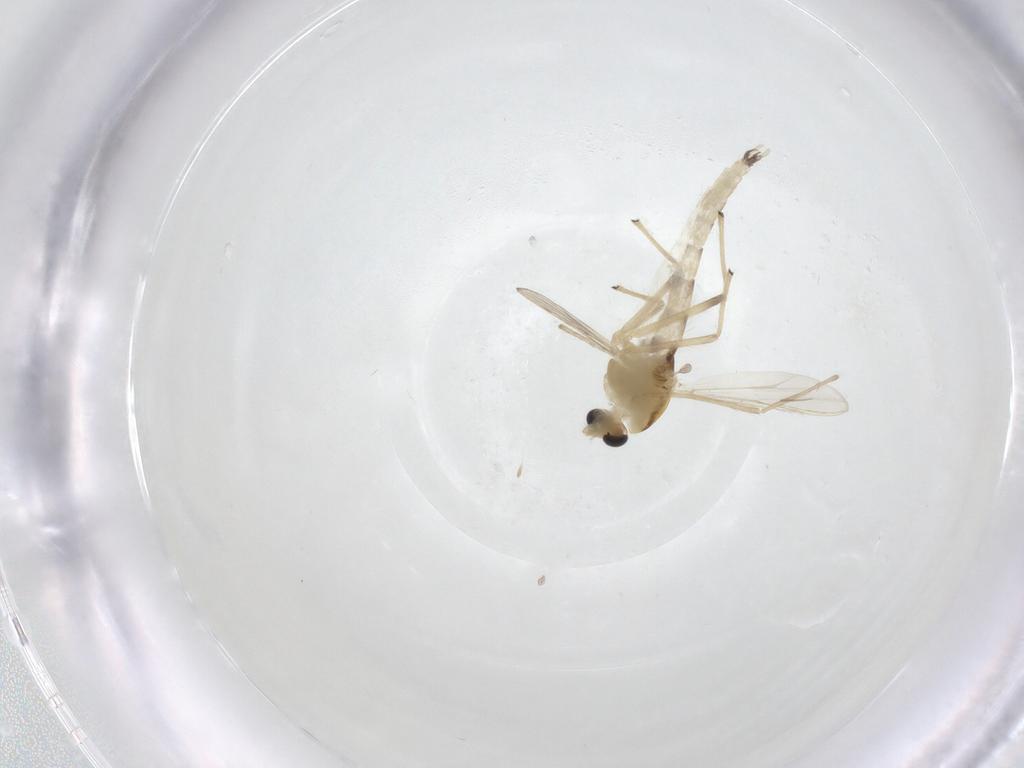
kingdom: Animalia
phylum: Arthropoda
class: Insecta
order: Diptera
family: Chironomidae
